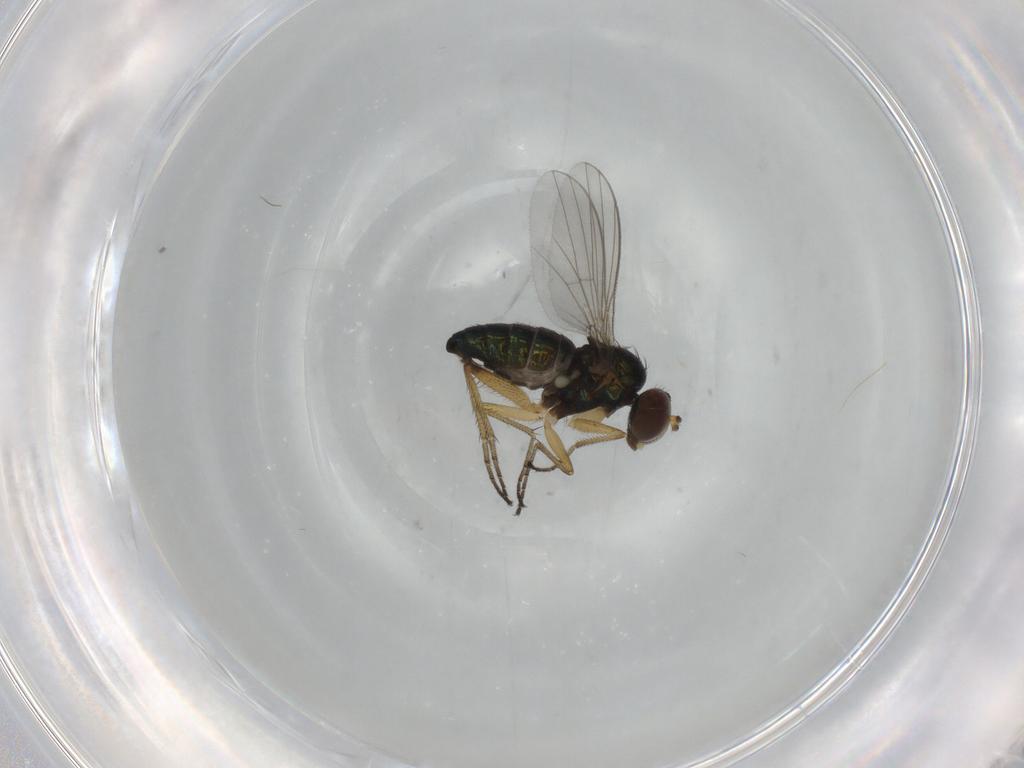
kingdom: Animalia
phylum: Arthropoda
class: Insecta
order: Diptera
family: Dolichopodidae
